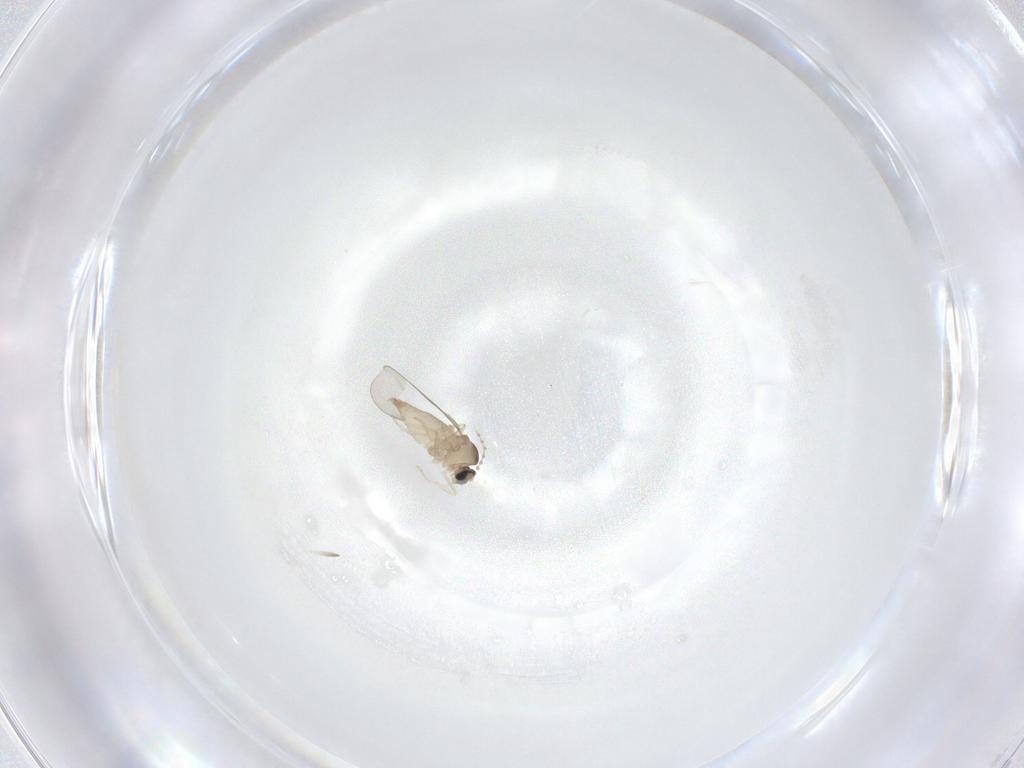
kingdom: Animalia
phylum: Arthropoda
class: Insecta
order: Diptera
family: Cecidomyiidae
